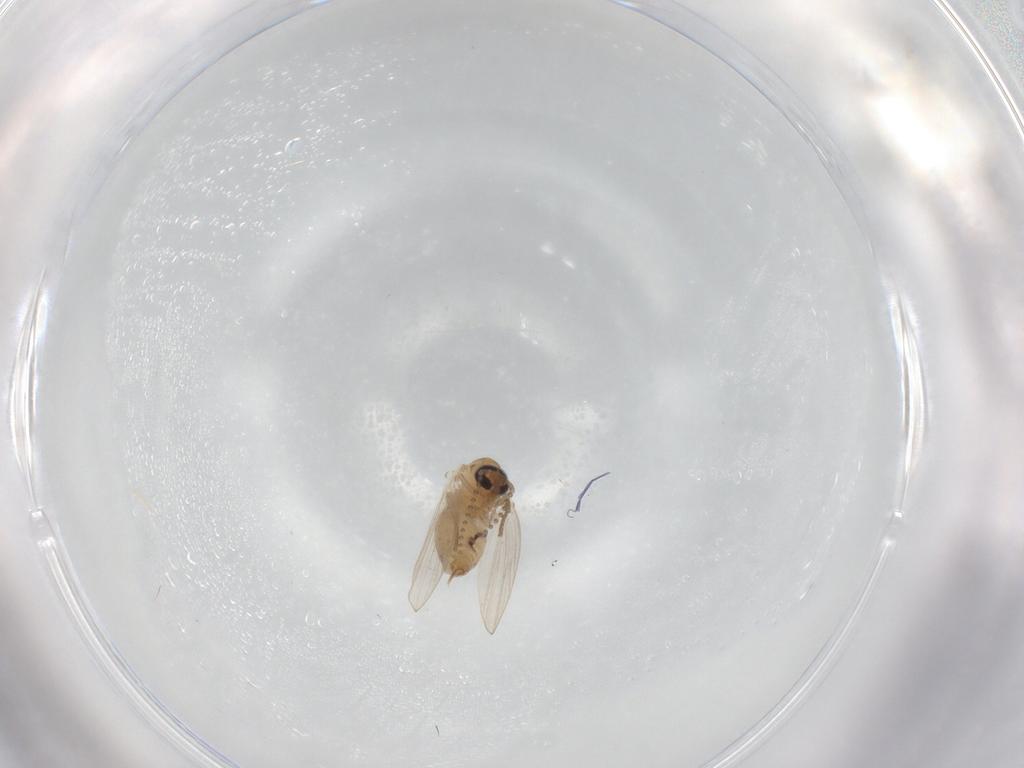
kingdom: Animalia
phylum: Arthropoda
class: Insecta
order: Diptera
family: Psychodidae
